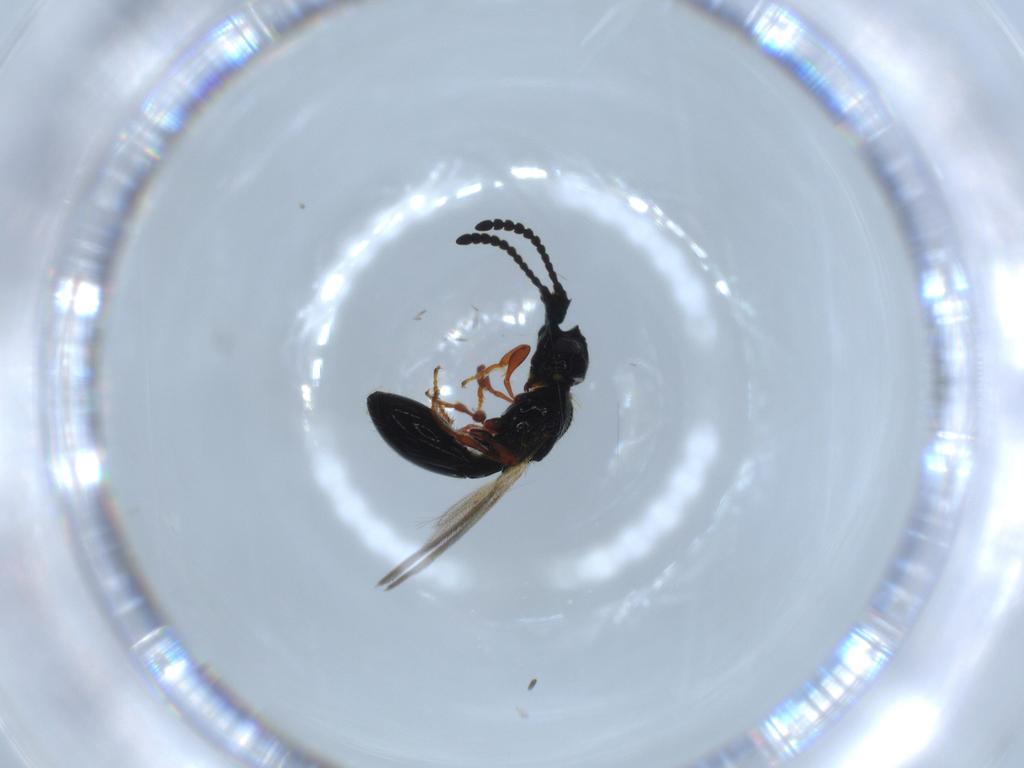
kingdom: Animalia
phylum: Arthropoda
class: Insecta
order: Hymenoptera
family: Diapriidae
